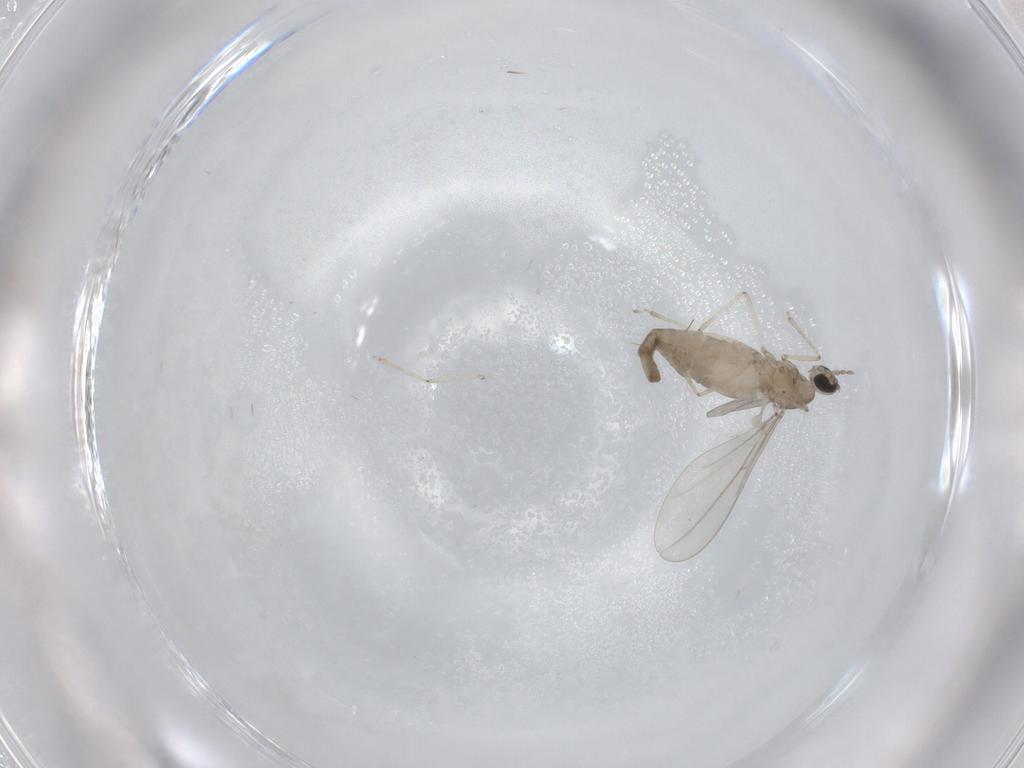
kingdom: Animalia
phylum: Arthropoda
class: Insecta
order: Diptera
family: Cecidomyiidae
